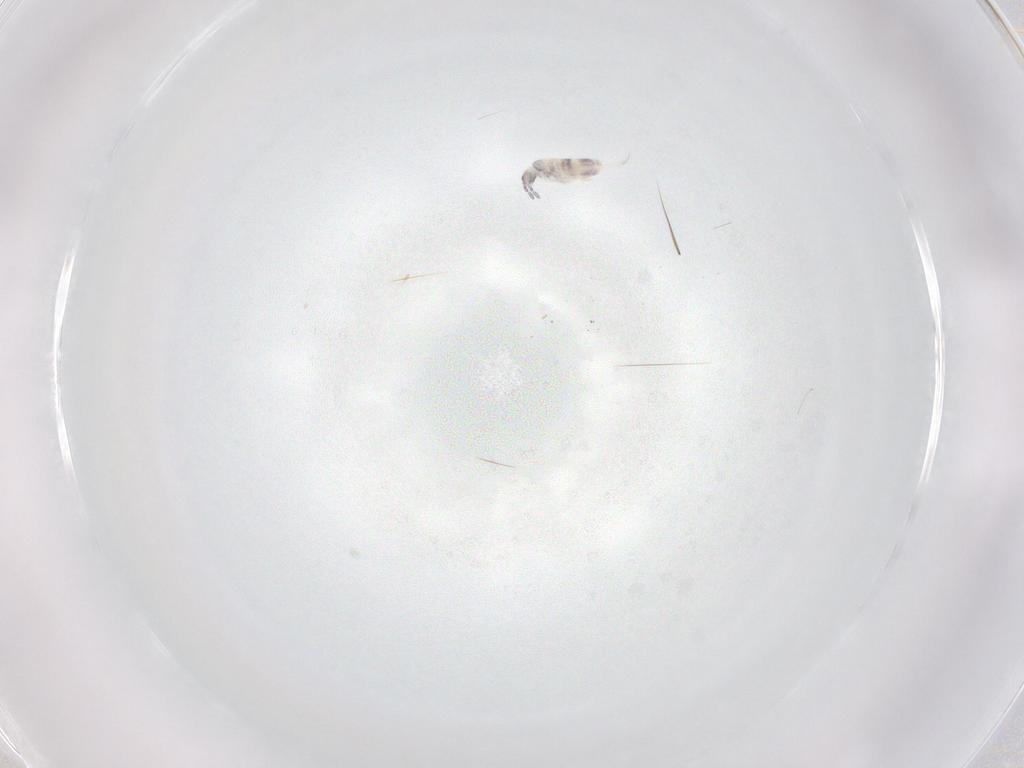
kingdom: Animalia
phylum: Arthropoda
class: Collembola
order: Entomobryomorpha
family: Entomobryidae
